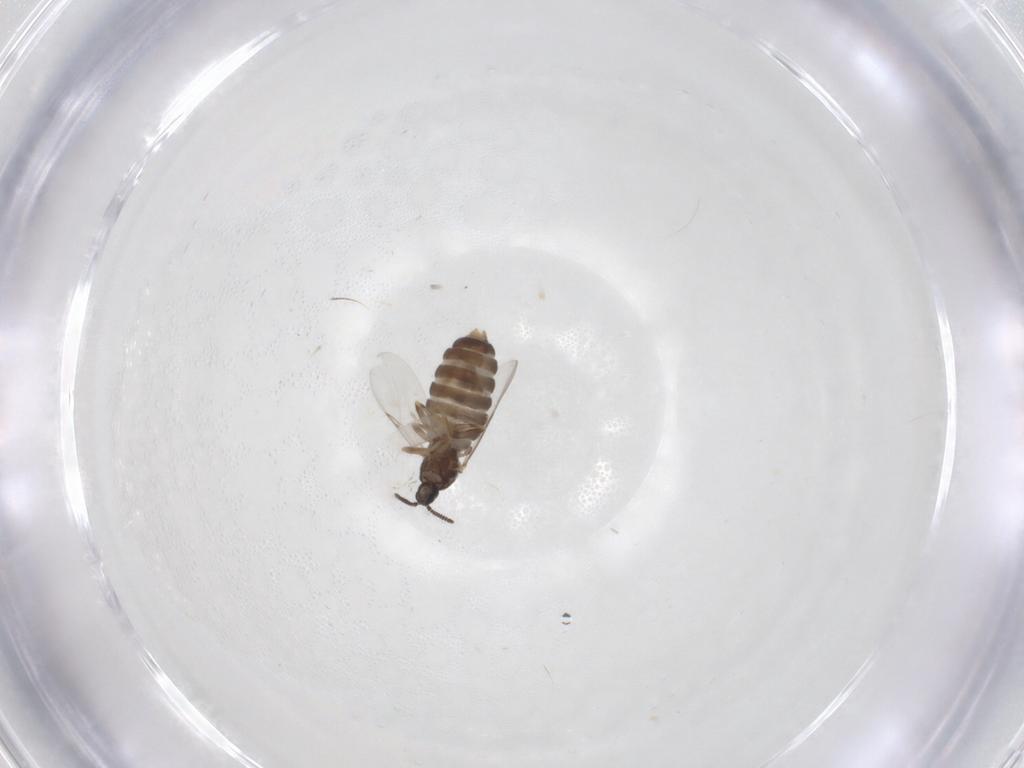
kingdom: Animalia
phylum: Arthropoda
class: Insecta
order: Diptera
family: Scatopsidae
